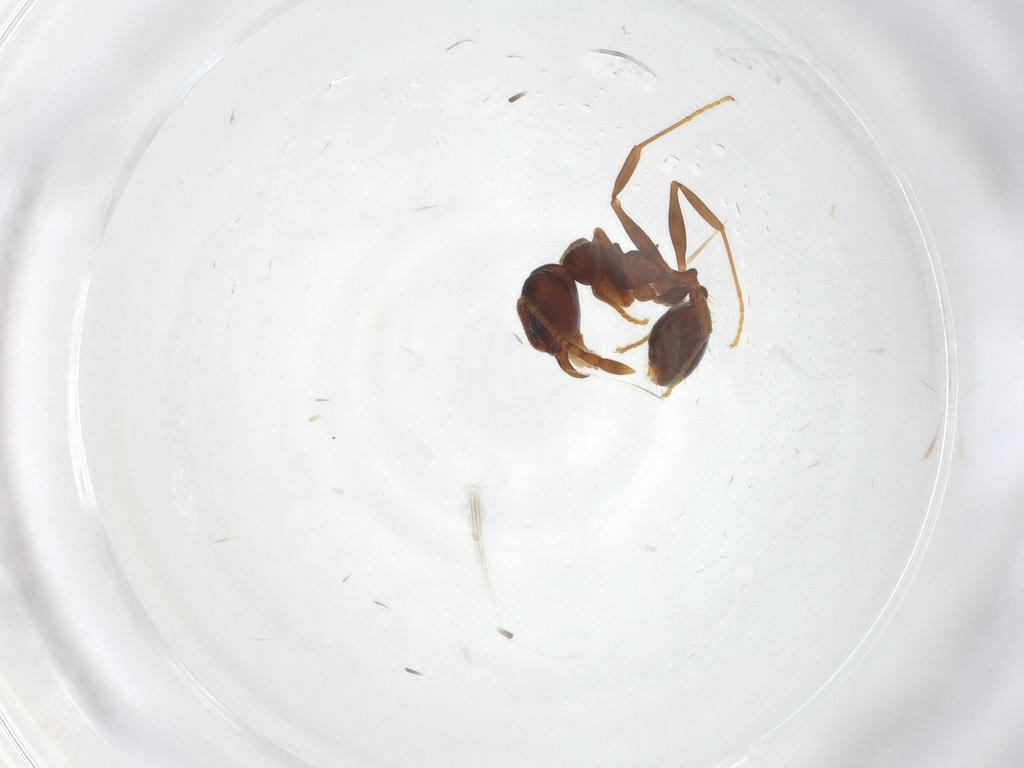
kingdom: Animalia
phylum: Arthropoda
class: Insecta
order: Hymenoptera
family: Formicidae
